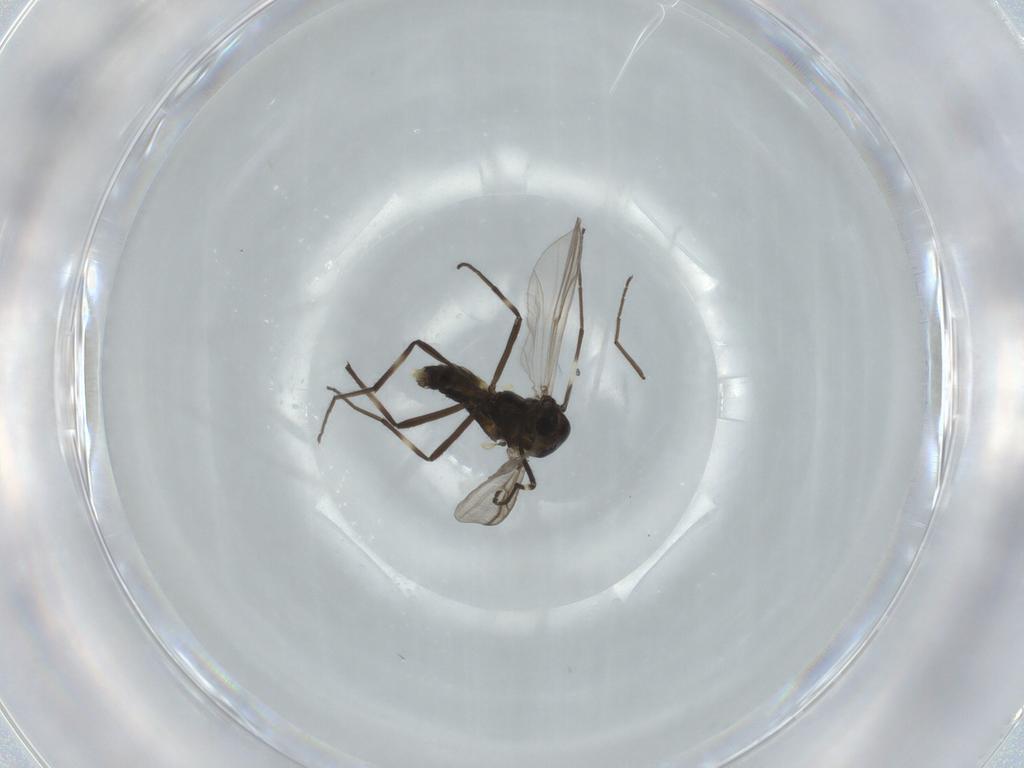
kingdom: Animalia
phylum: Arthropoda
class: Insecta
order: Diptera
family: Chironomidae
